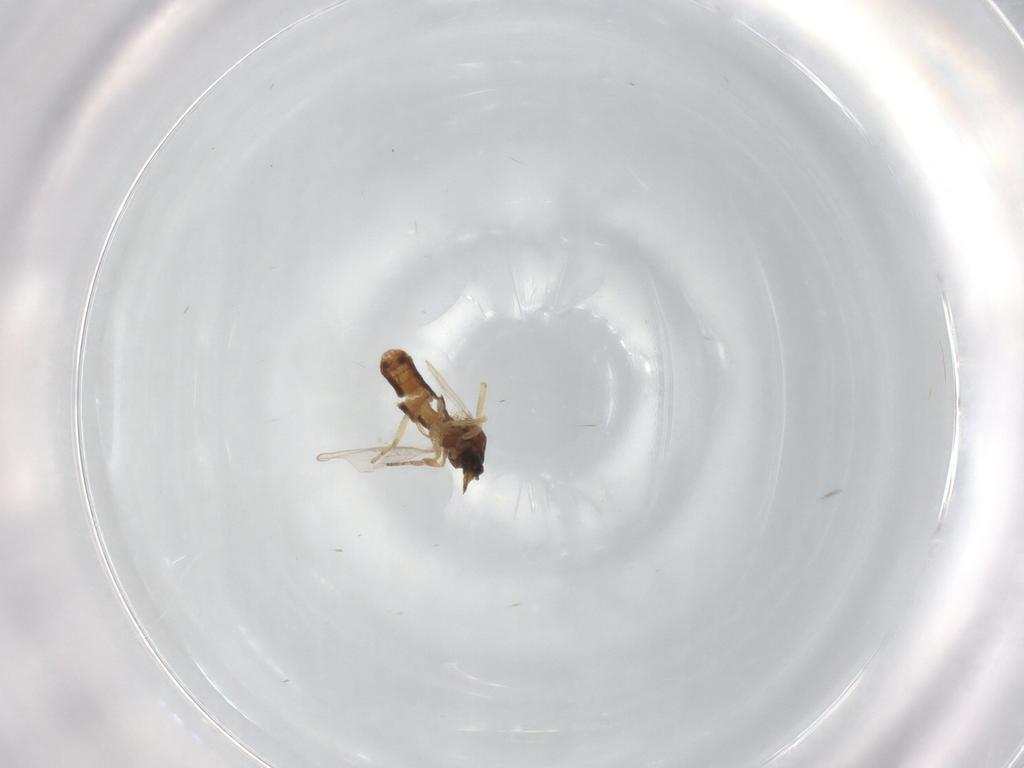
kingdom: Animalia
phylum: Arthropoda
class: Insecta
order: Diptera
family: Ceratopogonidae
